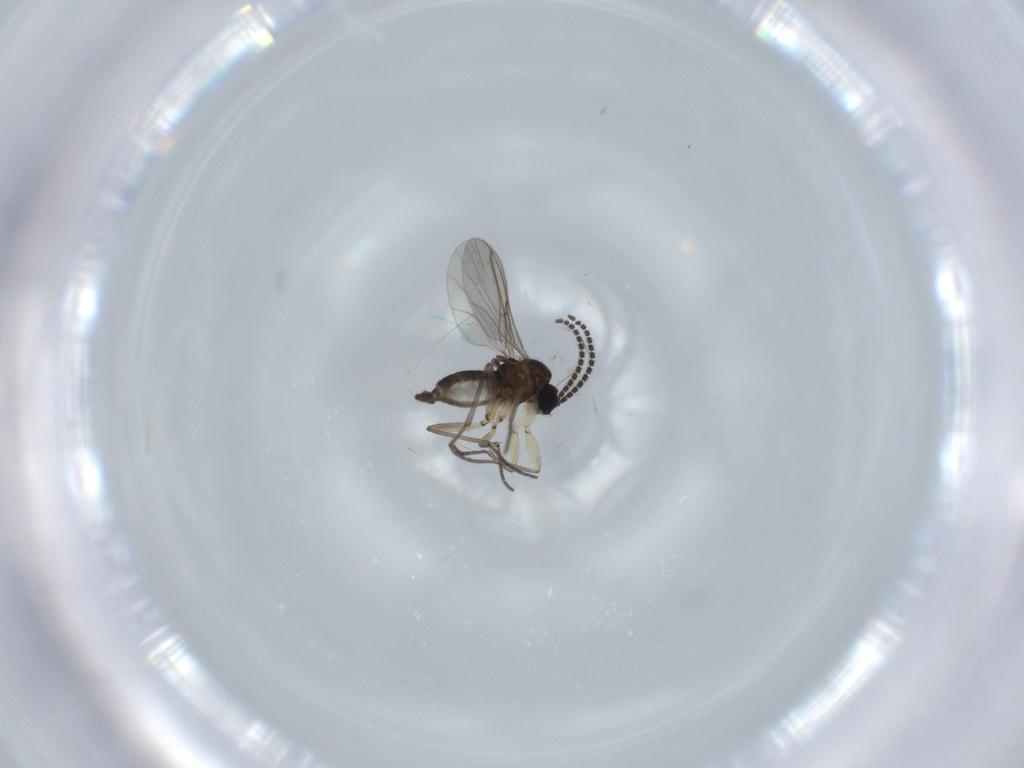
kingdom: Animalia
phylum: Arthropoda
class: Insecta
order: Diptera
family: Sciaridae
